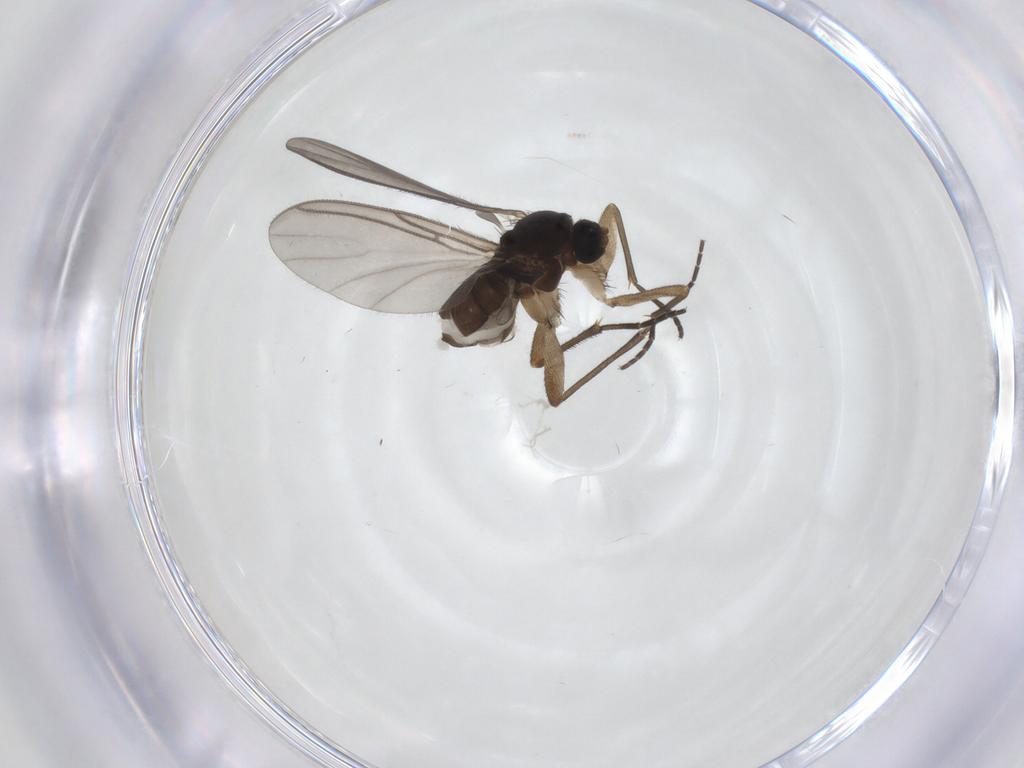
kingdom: Animalia
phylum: Arthropoda
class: Insecta
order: Diptera
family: Sciaridae
